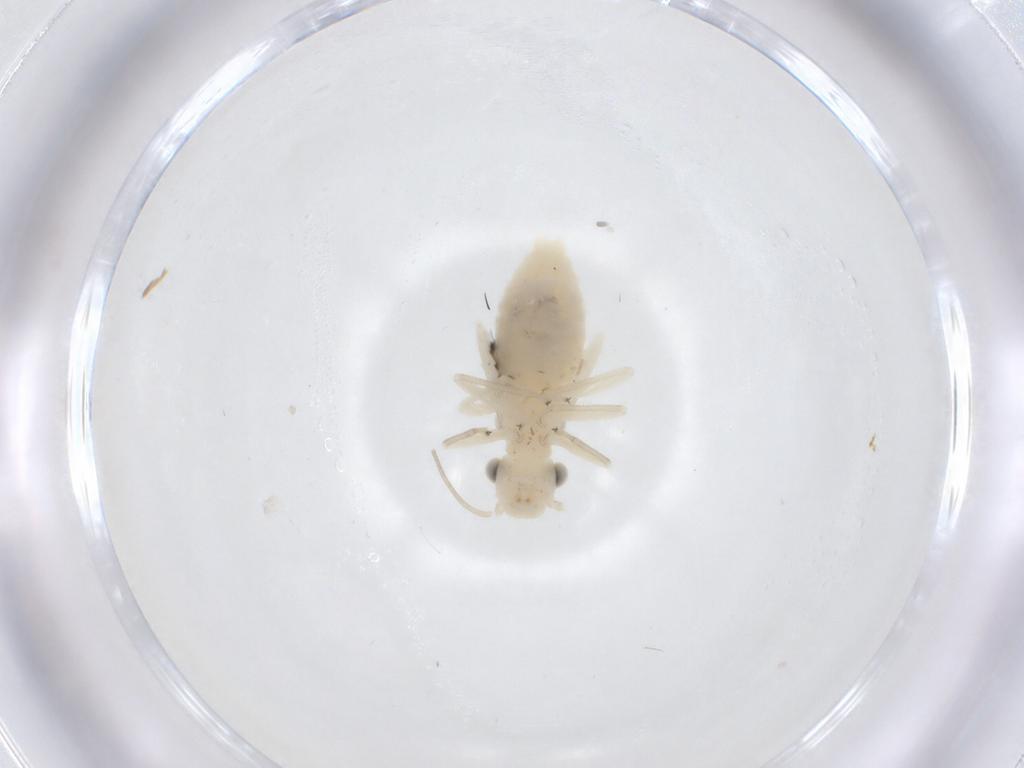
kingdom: Animalia
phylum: Arthropoda
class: Insecta
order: Psocodea
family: Caeciliusidae
